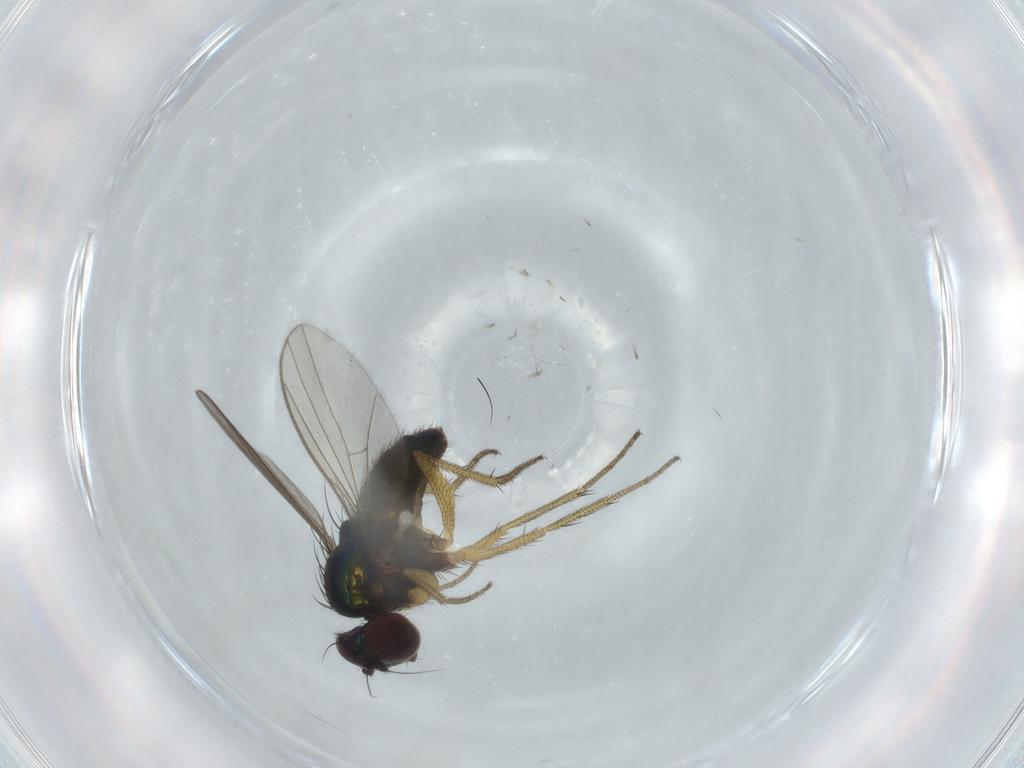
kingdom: Animalia
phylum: Arthropoda
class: Insecta
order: Diptera
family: Dolichopodidae
